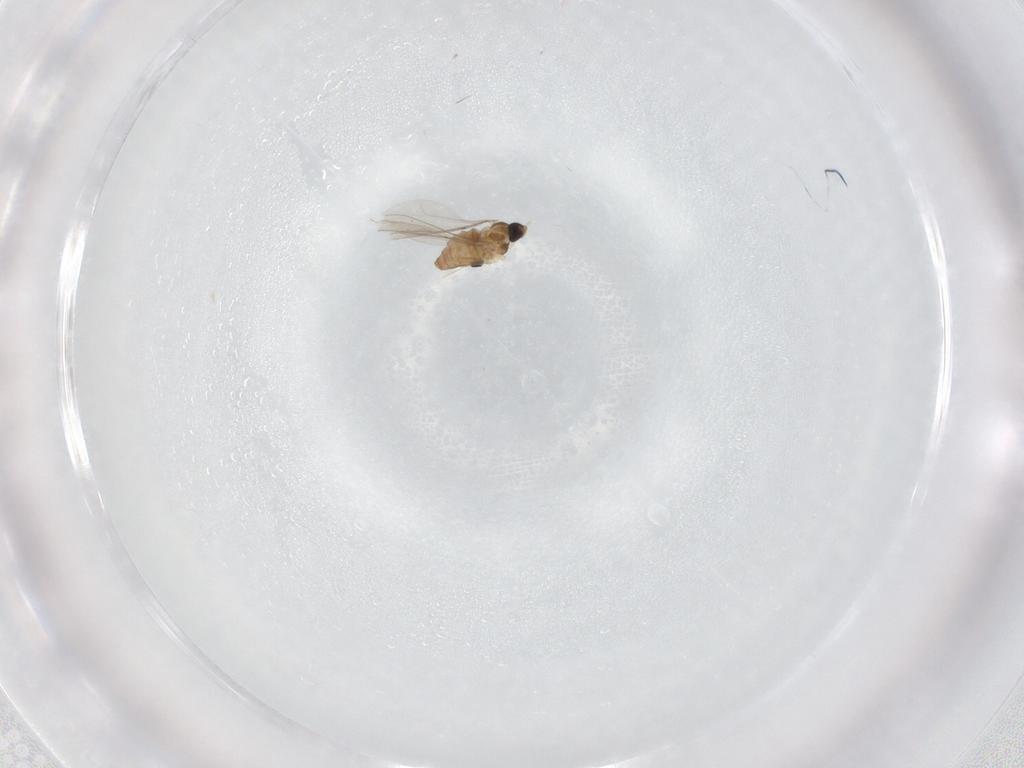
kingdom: Animalia
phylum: Arthropoda
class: Insecta
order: Diptera
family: Cecidomyiidae
